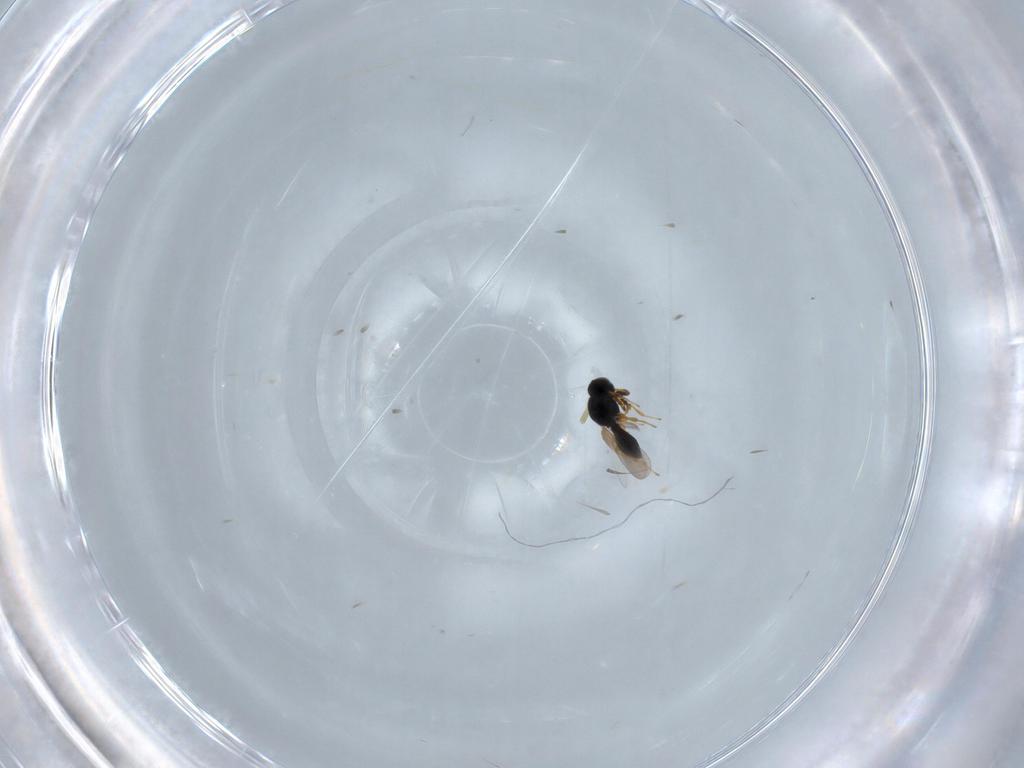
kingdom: Animalia
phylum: Arthropoda
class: Insecta
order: Hymenoptera
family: Platygastridae
